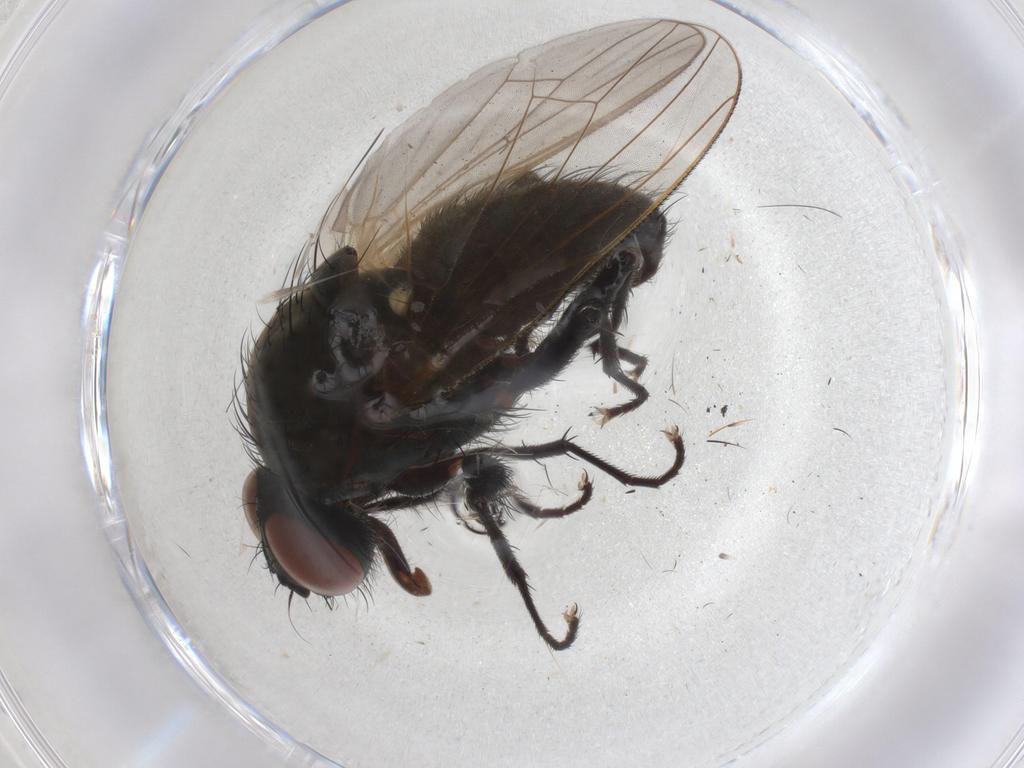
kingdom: Animalia
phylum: Arthropoda
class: Insecta
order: Diptera
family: Anthomyiidae
